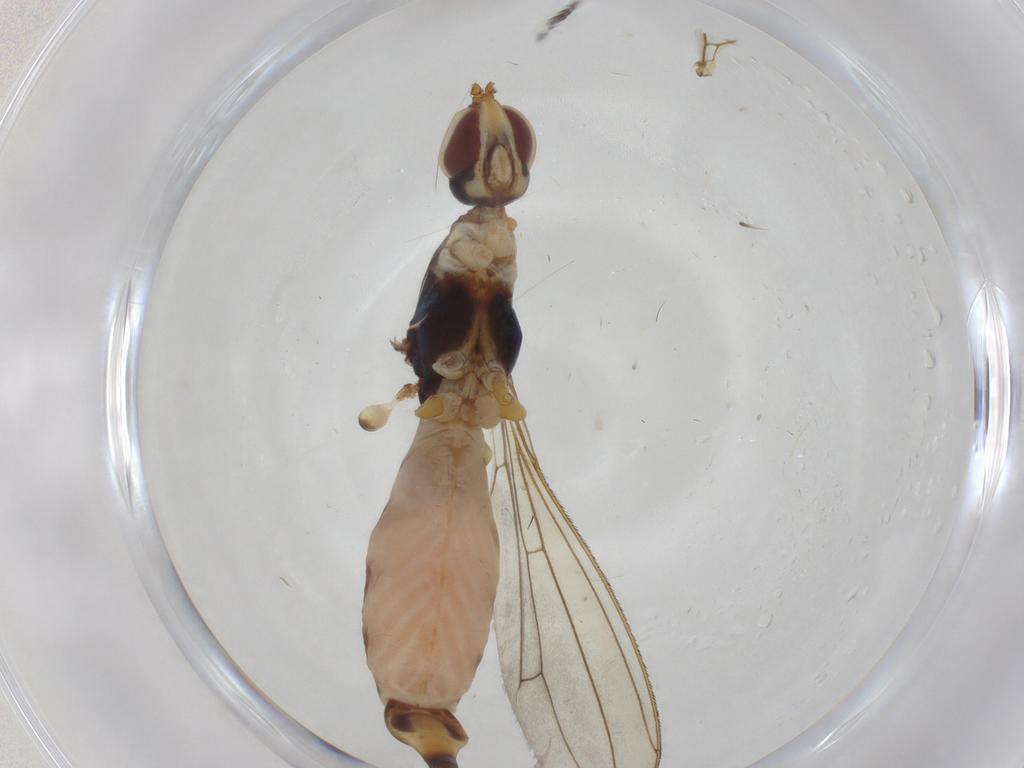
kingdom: Animalia
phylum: Arthropoda
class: Insecta
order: Diptera
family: Micropezidae
